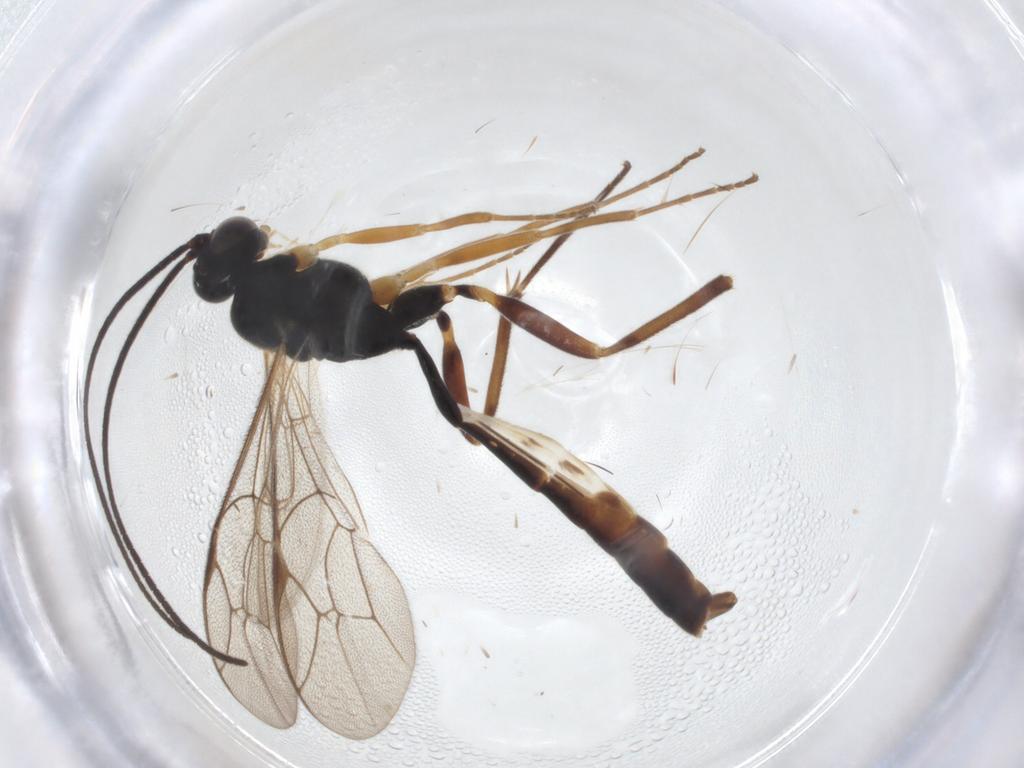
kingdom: Animalia
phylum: Arthropoda
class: Insecta
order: Hymenoptera
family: Ichneumonidae
